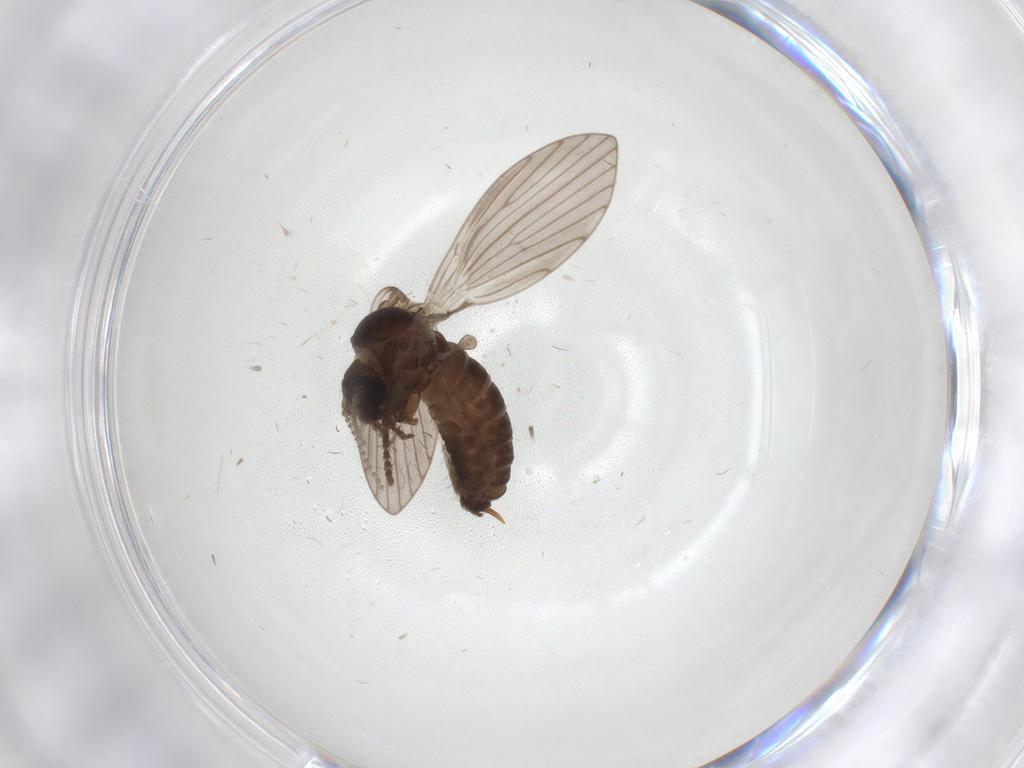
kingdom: Animalia
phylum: Arthropoda
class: Insecta
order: Diptera
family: Psychodidae
